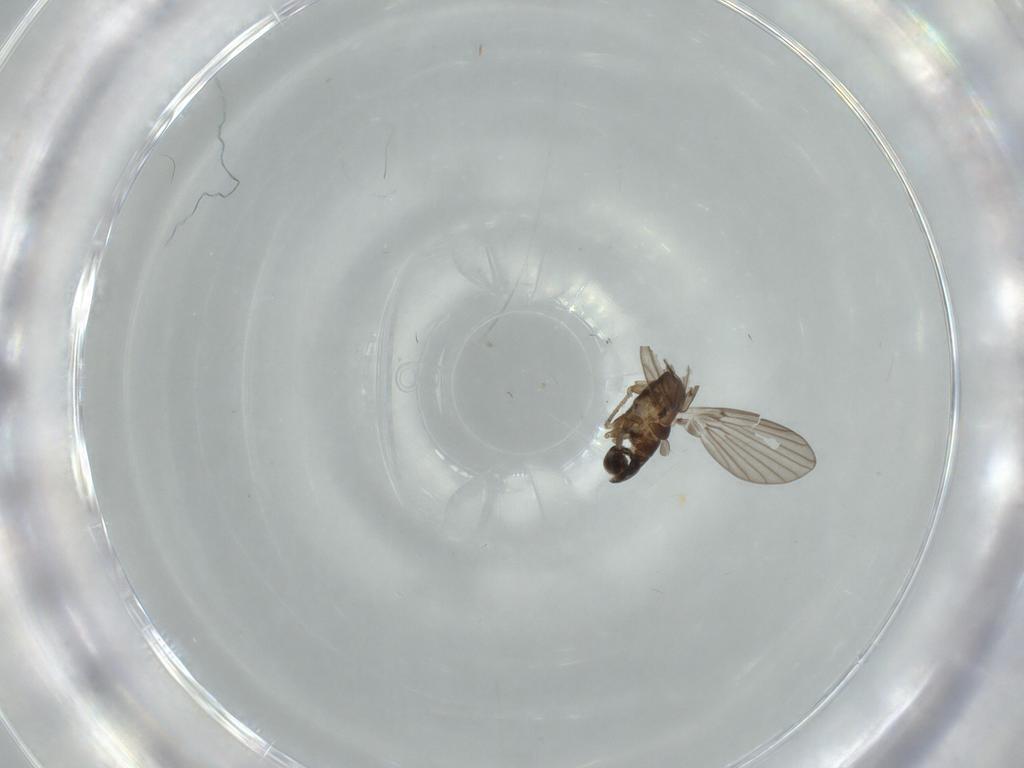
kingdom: Animalia
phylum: Arthropoda
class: Insecta
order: Diptera
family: Psychodidae
